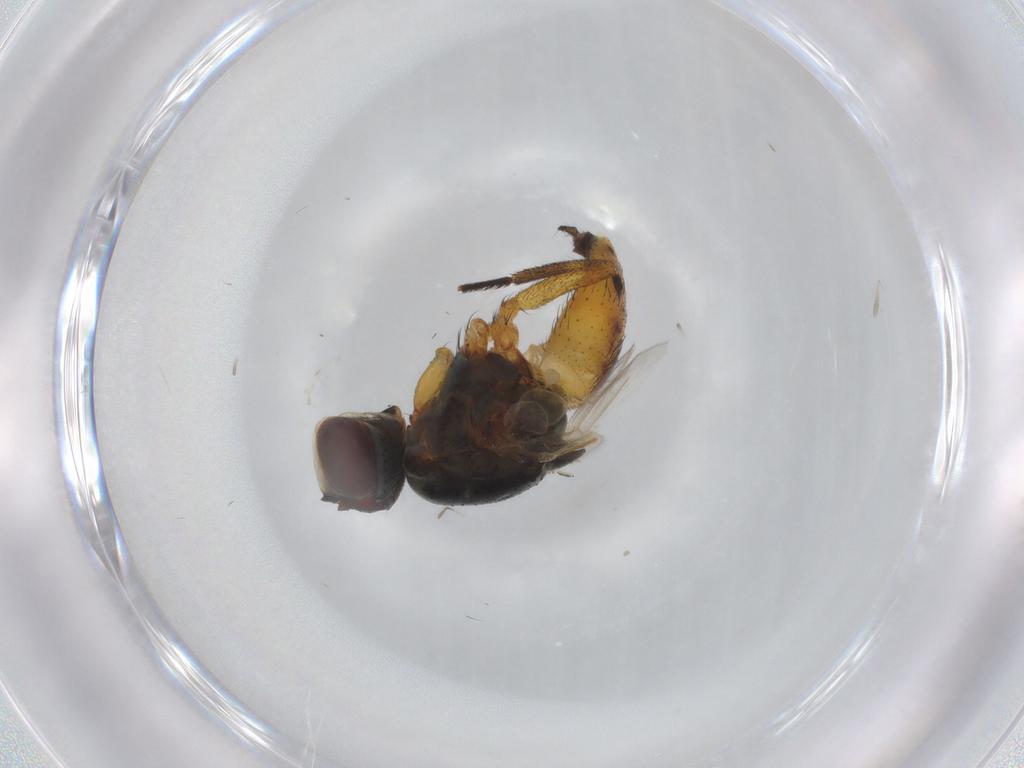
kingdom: Animalia
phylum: Arthropoda
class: Insecta
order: Diptera
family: Muscidae
